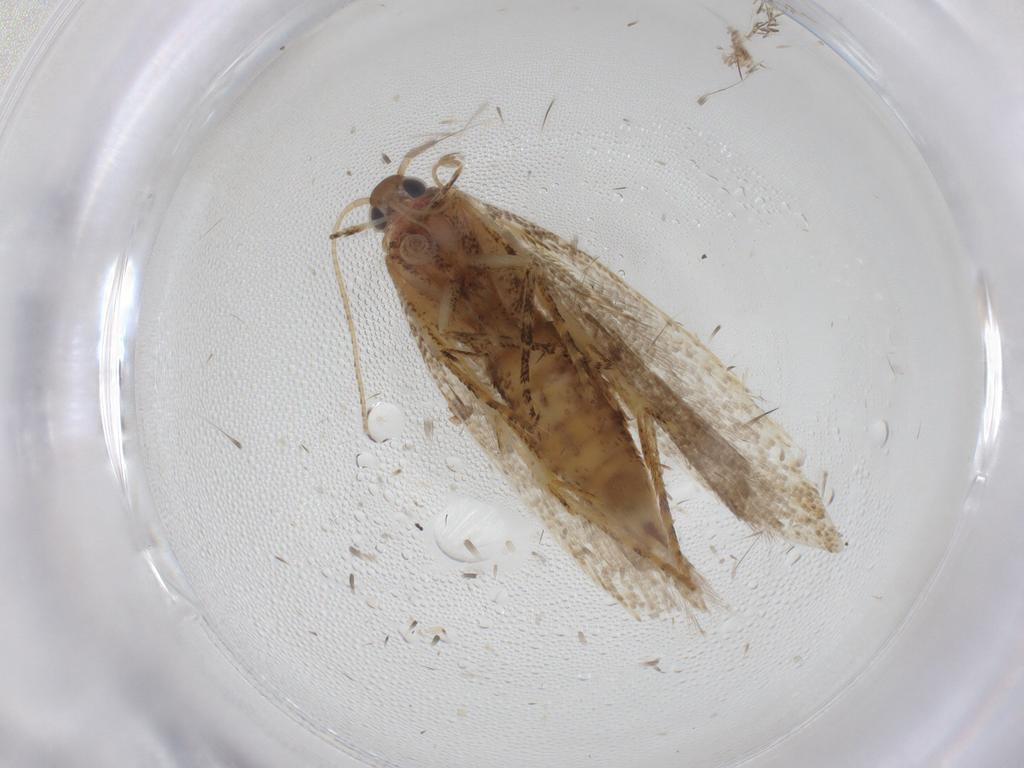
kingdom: Animalia
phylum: Arthropoda
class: Insecta
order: Lepidoptera
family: Crambidae
